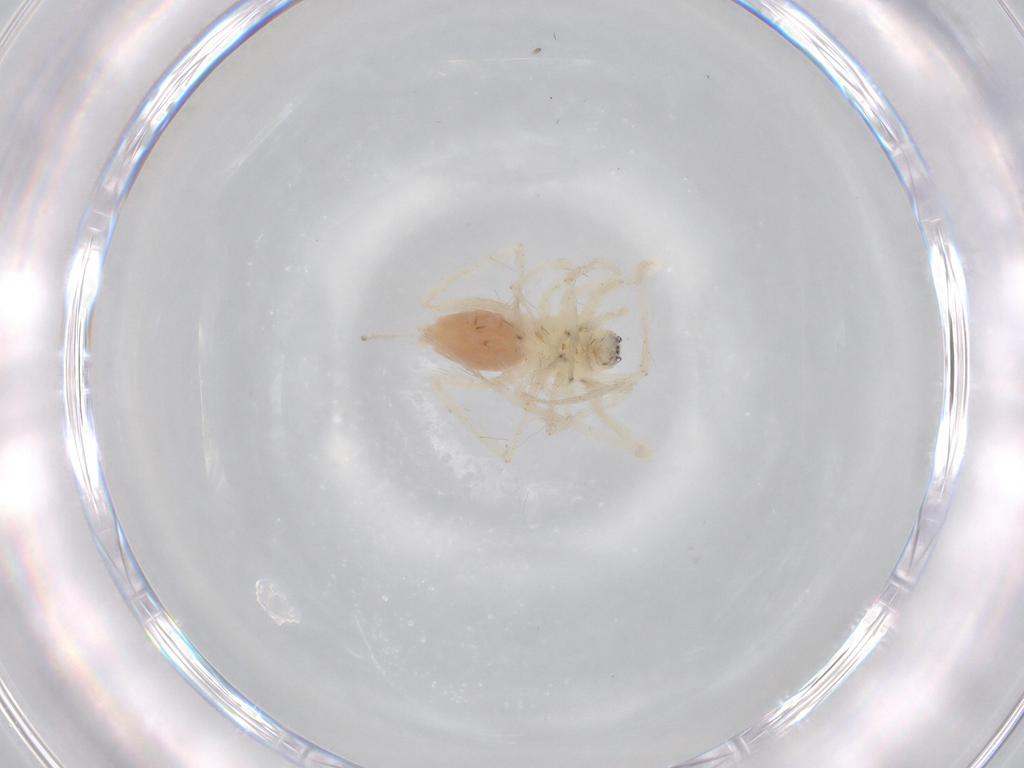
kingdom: Animalia
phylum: Arthropoda
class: Arachnida
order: Araneae
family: Anyphaenidae
